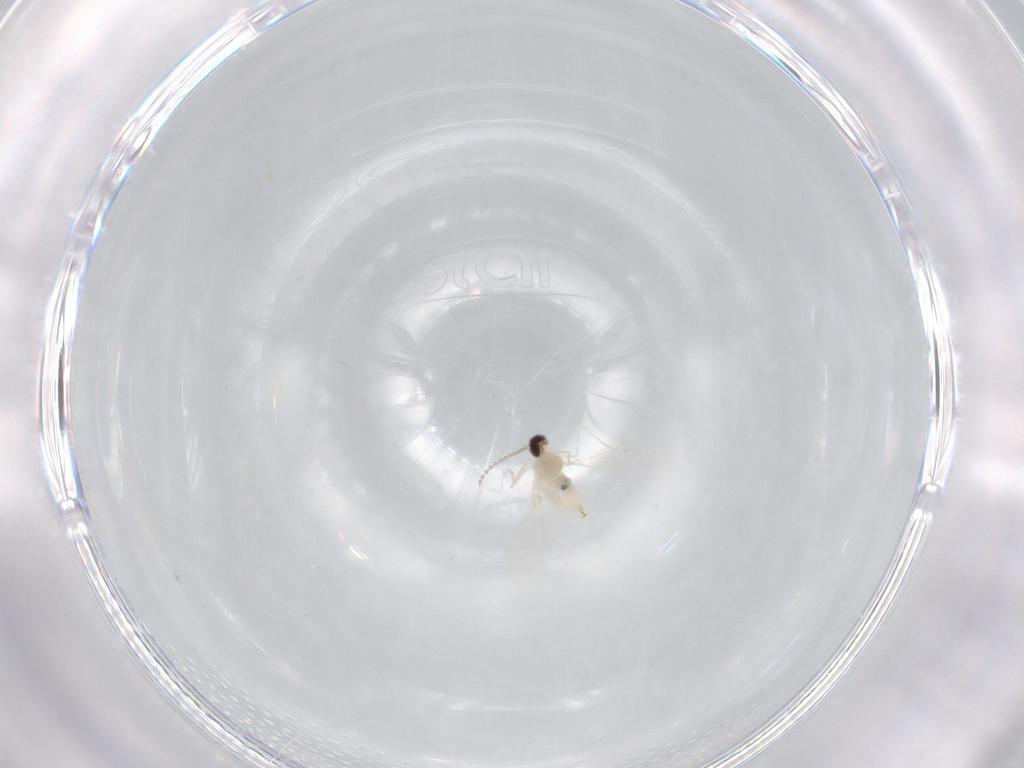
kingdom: Animalia
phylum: Arthropoda
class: Insecta
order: Diptera
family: Cecidomyiidae
